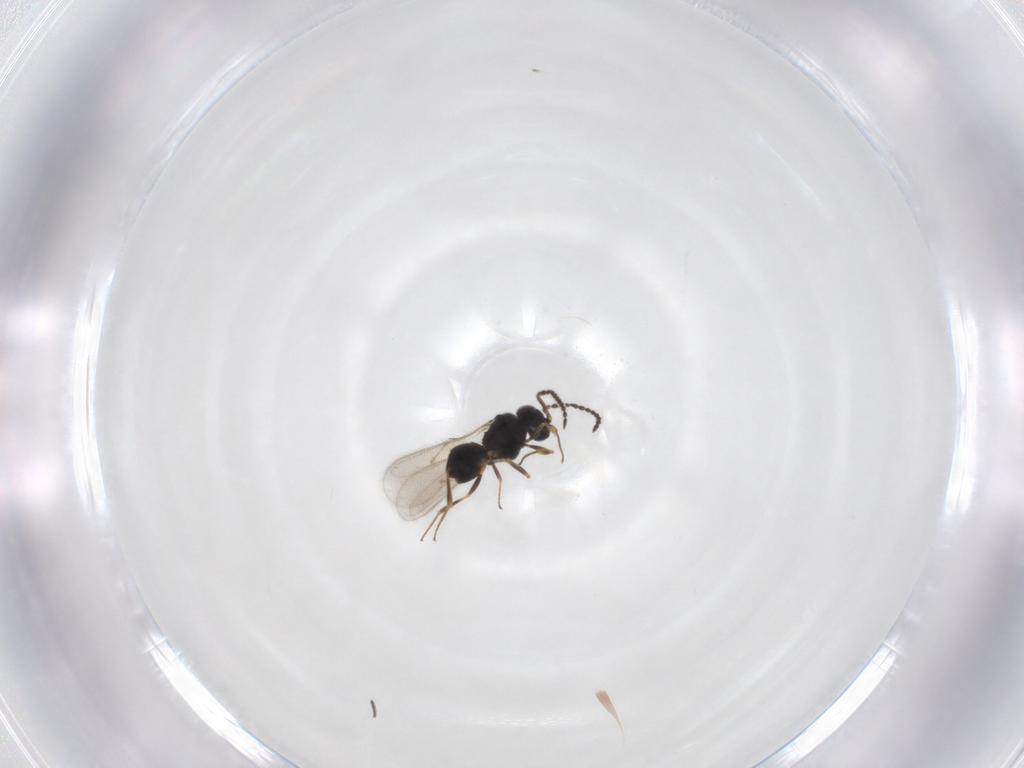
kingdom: Animalia
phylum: Arthropoda
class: Insecta
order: Hymenoptera
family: Scelionidae
